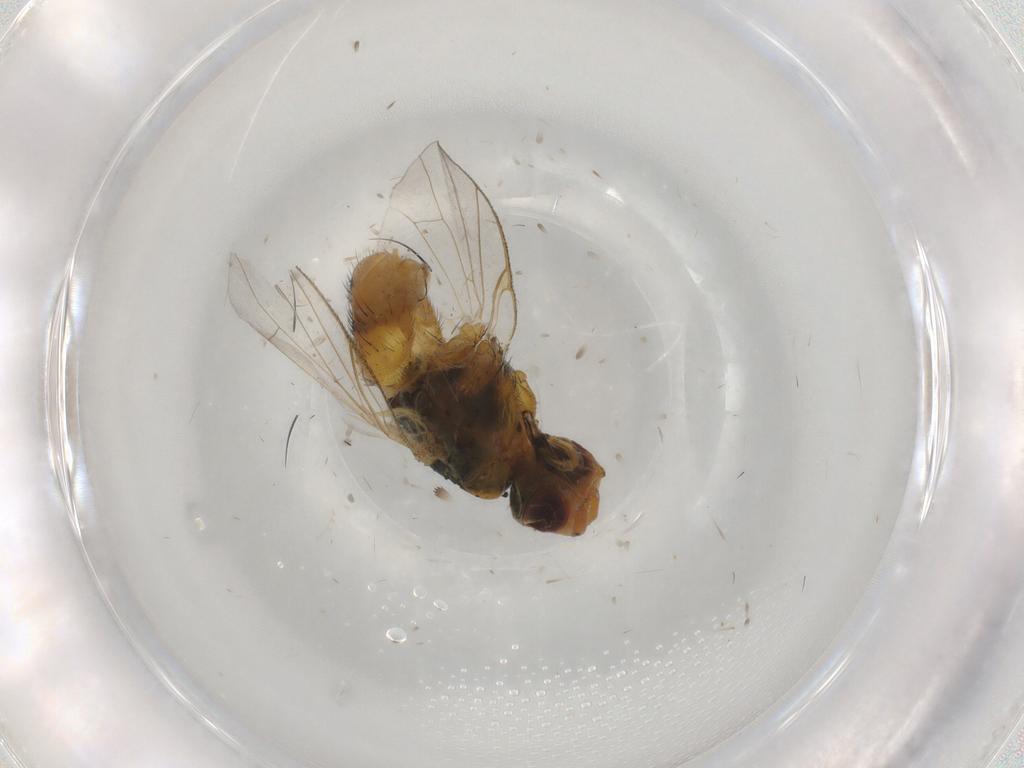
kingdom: Animalia
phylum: Arthropoda
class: Insecta
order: Diptera
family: Muscidae
